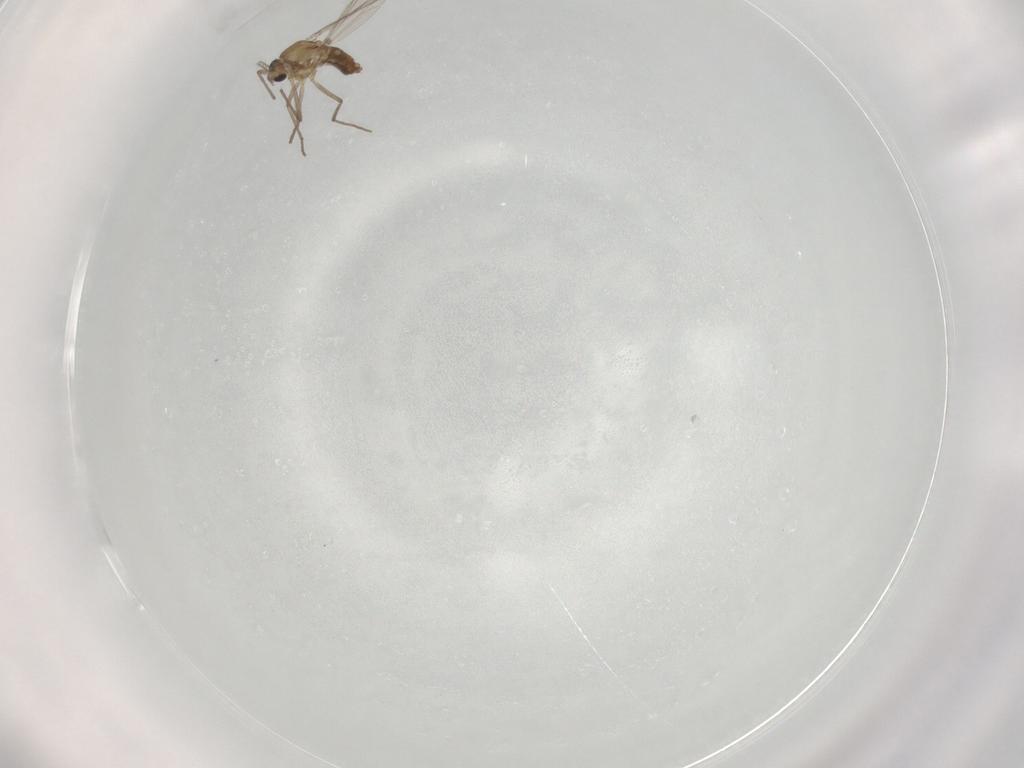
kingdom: Animalia
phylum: Arthropoda
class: Insecta
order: Diptera
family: Chironomidae
